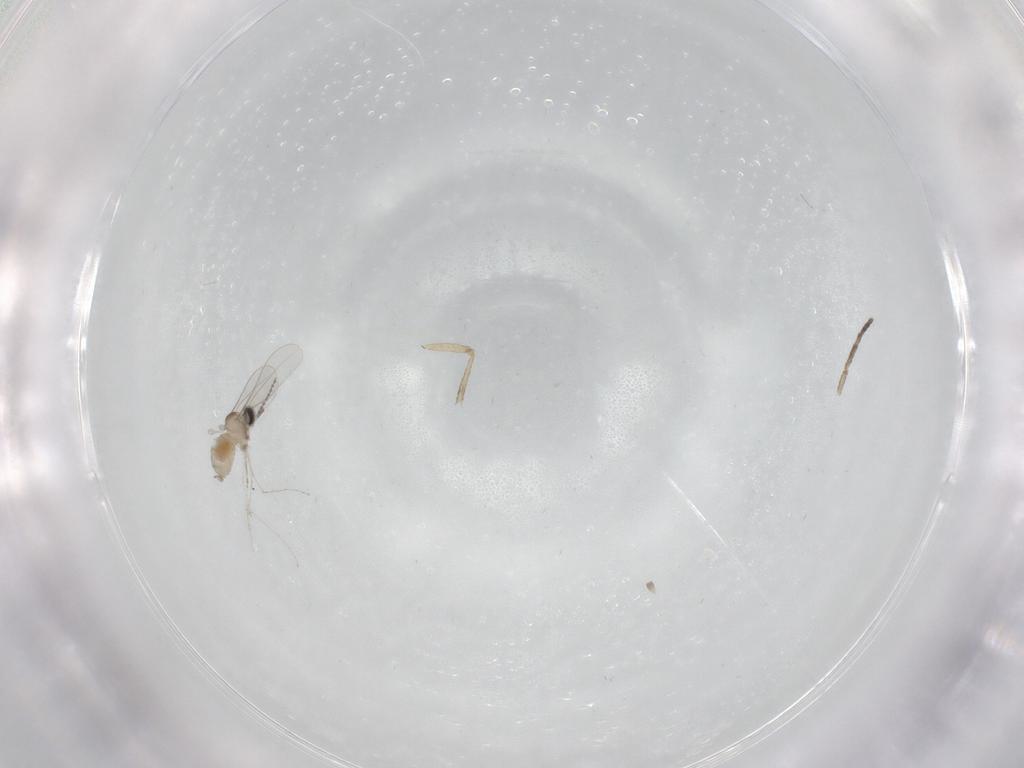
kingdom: Animalia
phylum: Arthropoda
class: Insecta
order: Diptera
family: Cecidomyiidae
